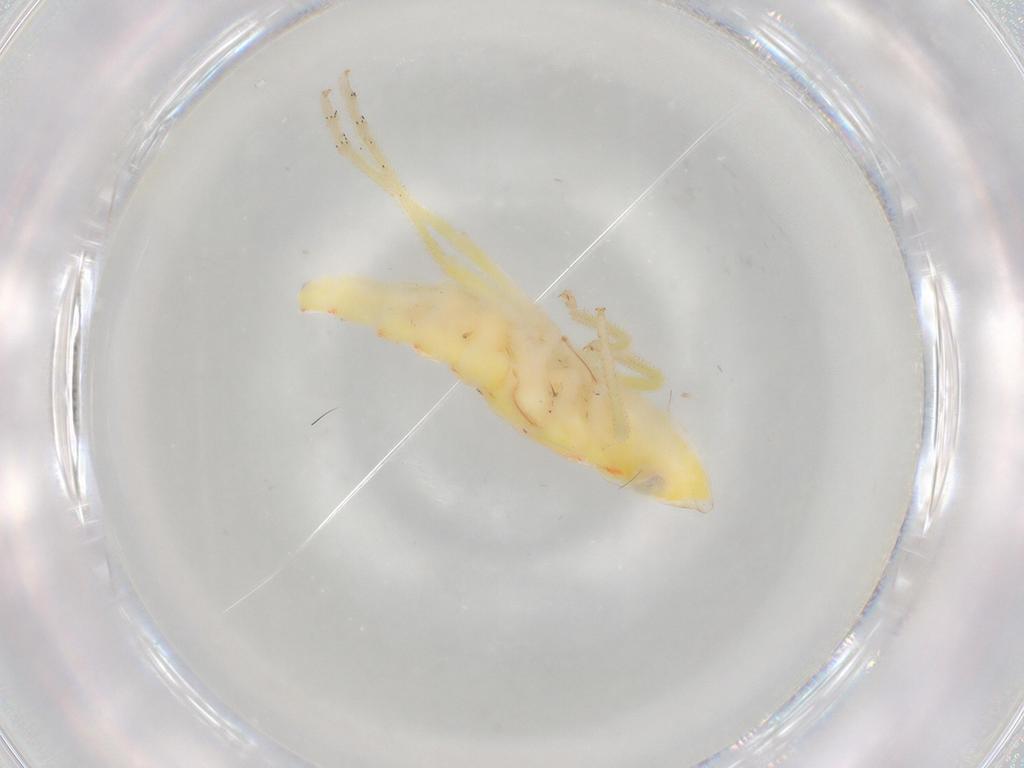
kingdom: Animalia
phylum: Arthropoda
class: Insecta
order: Hemiptera
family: Tropiduchidae
